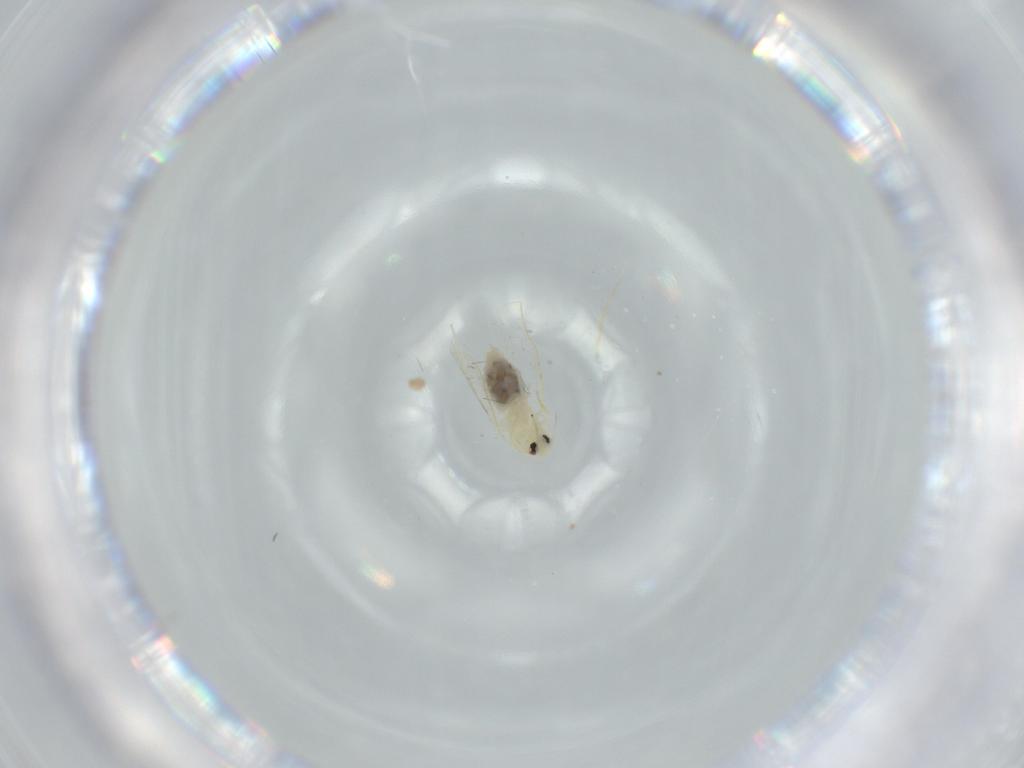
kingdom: Animalia
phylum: Arthropoda
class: Insecta
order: Hemiptera
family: Aleyrodidae
